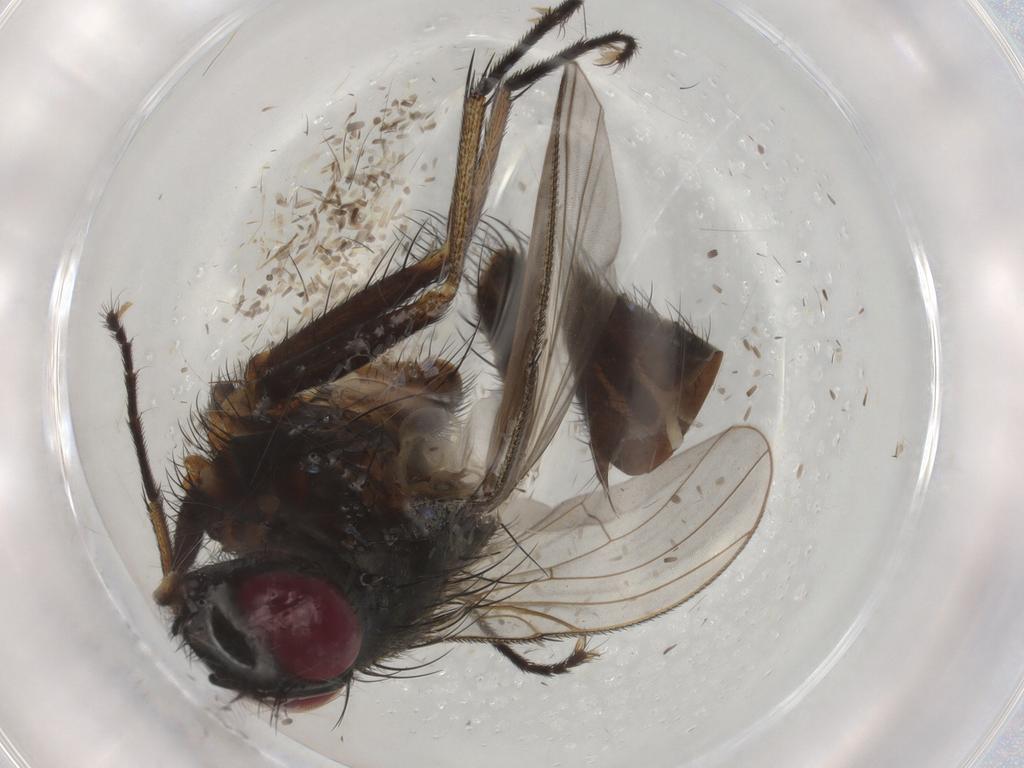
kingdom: Animalia
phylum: Arthropoda
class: Insecta
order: Diptera
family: Muscidae
